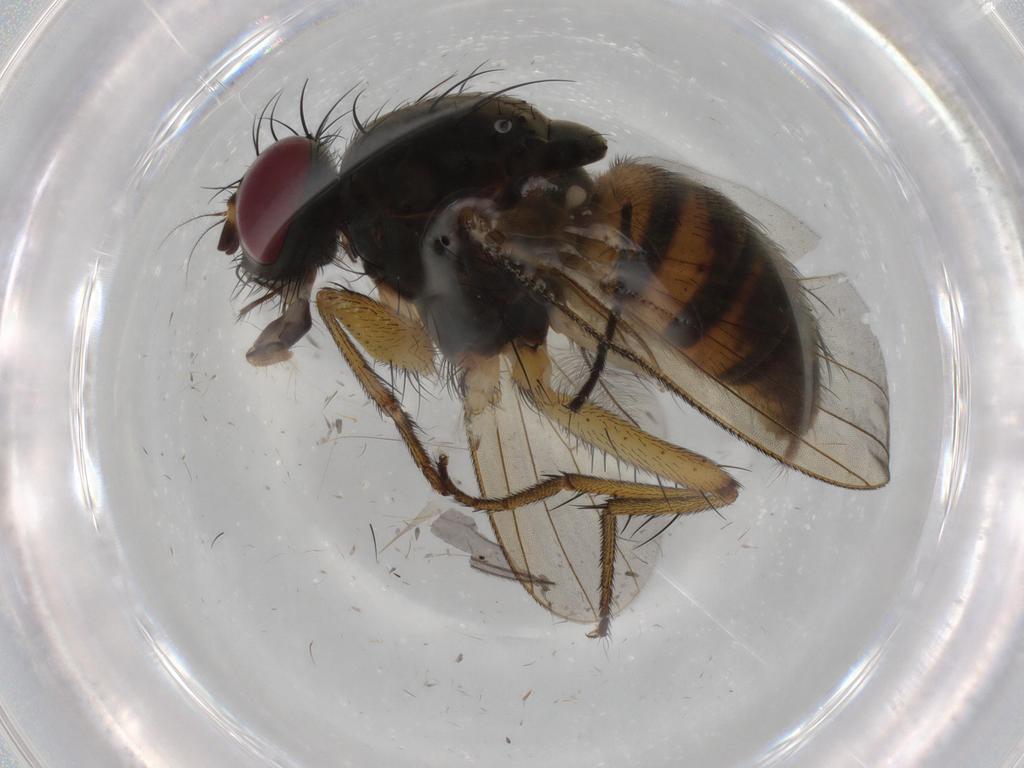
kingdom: Animalia
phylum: Arthropoda
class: Insecta
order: Diptera
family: Muscidae
